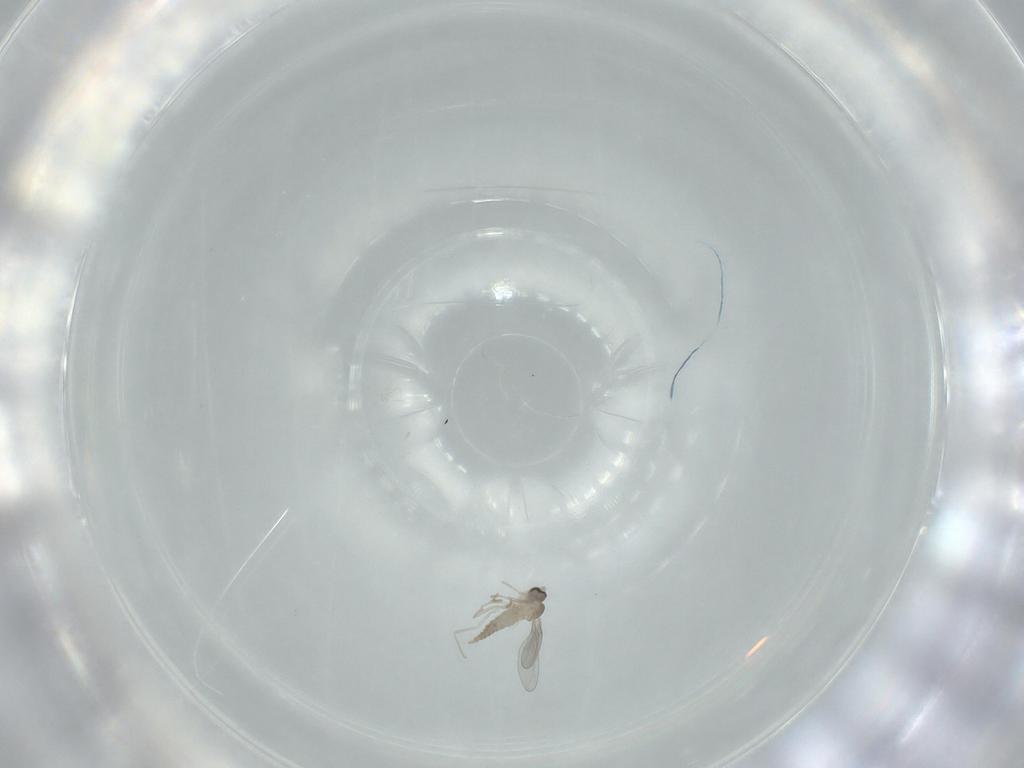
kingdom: Animalia
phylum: Arthropoda
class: Insecta
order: Diptera
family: Cecidomyiidae
